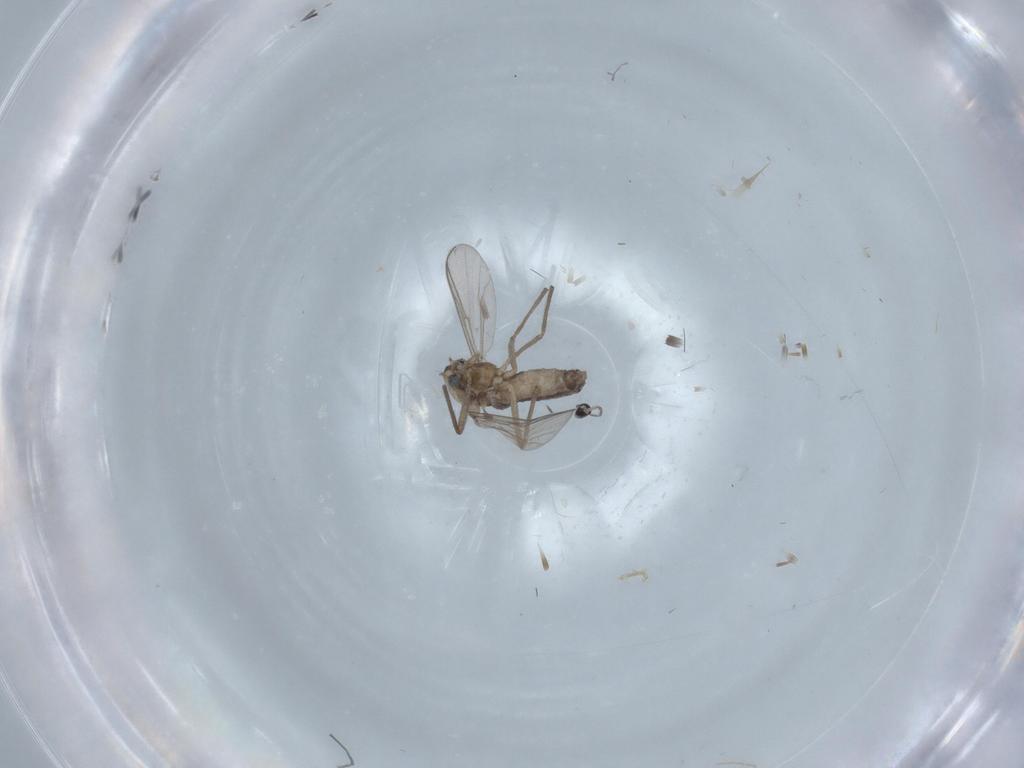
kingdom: Animalia
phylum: Arthropoda
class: Insecta
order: Diptera
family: Chironomidae
